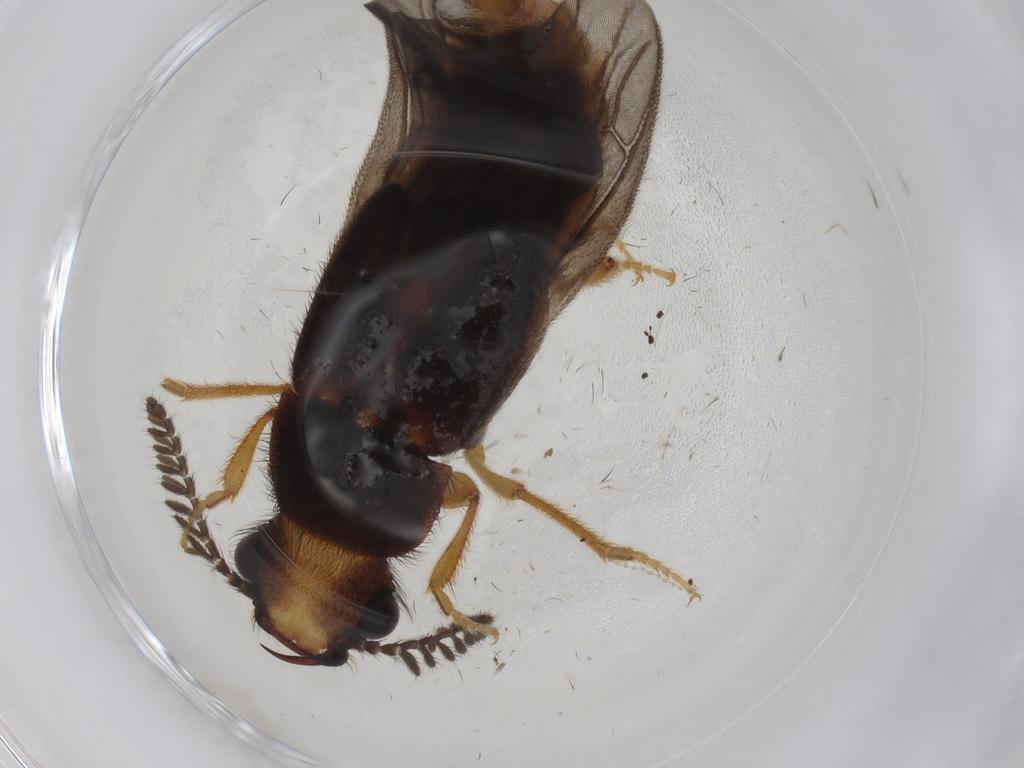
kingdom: Animalia
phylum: Arthropoda
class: Insecta
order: Coleoptera
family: Phengodidae
